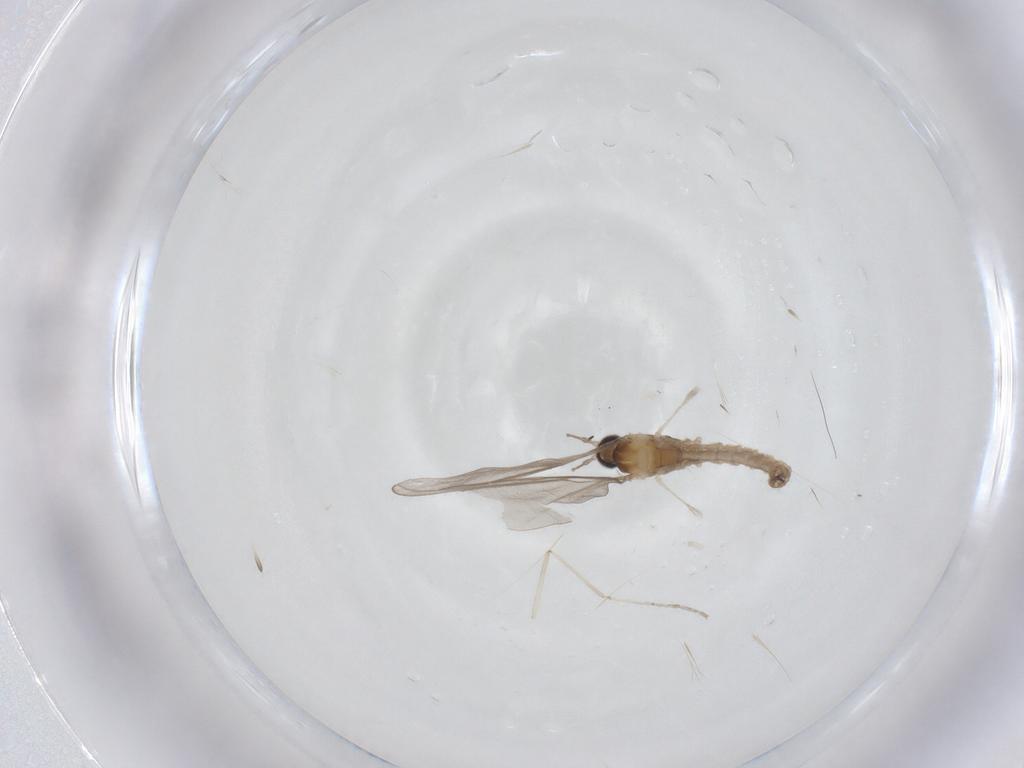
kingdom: Animalia
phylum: Arthropoda
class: Insecta
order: Diptera
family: Cecidomyiidae
